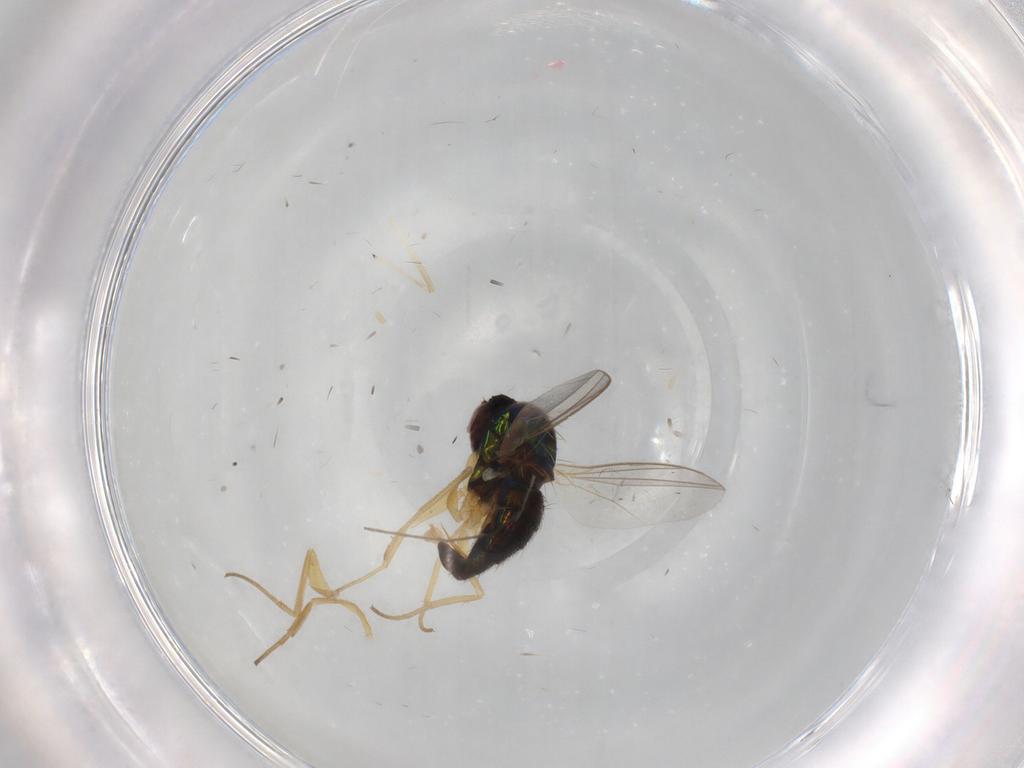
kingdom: Animalia
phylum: Arthropoda
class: Insecta
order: Diptera
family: Dolichopodidae
